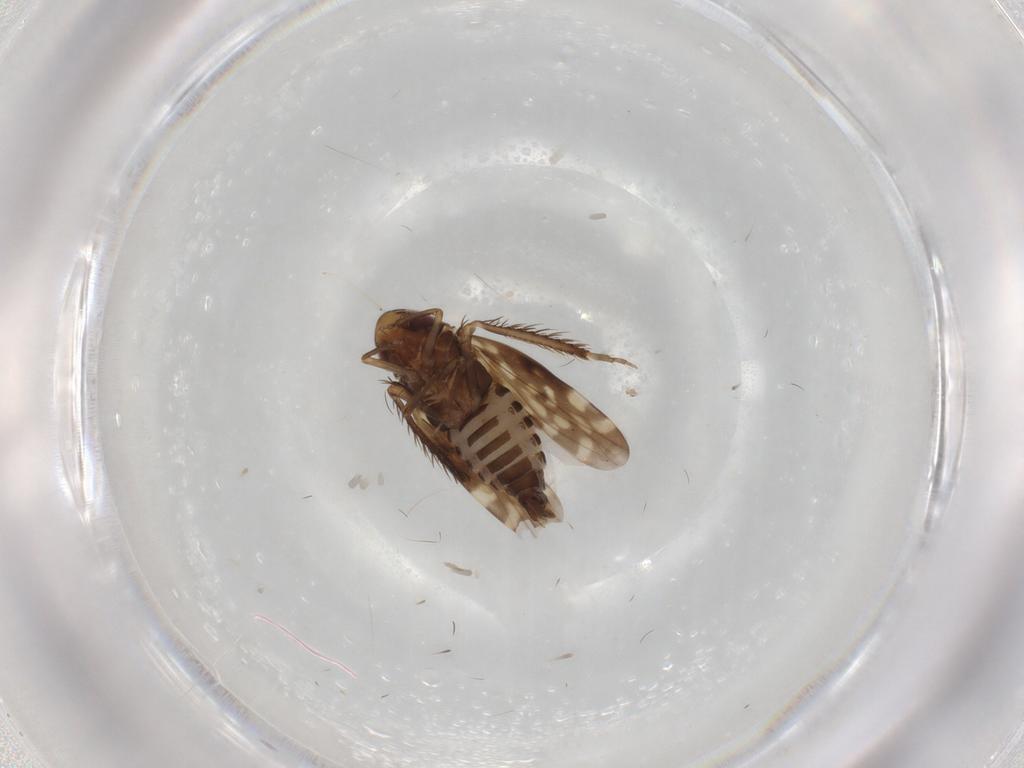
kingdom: Animalia
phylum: Arthropoda
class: Insecta
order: Hemiptera
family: Cicadellidae
